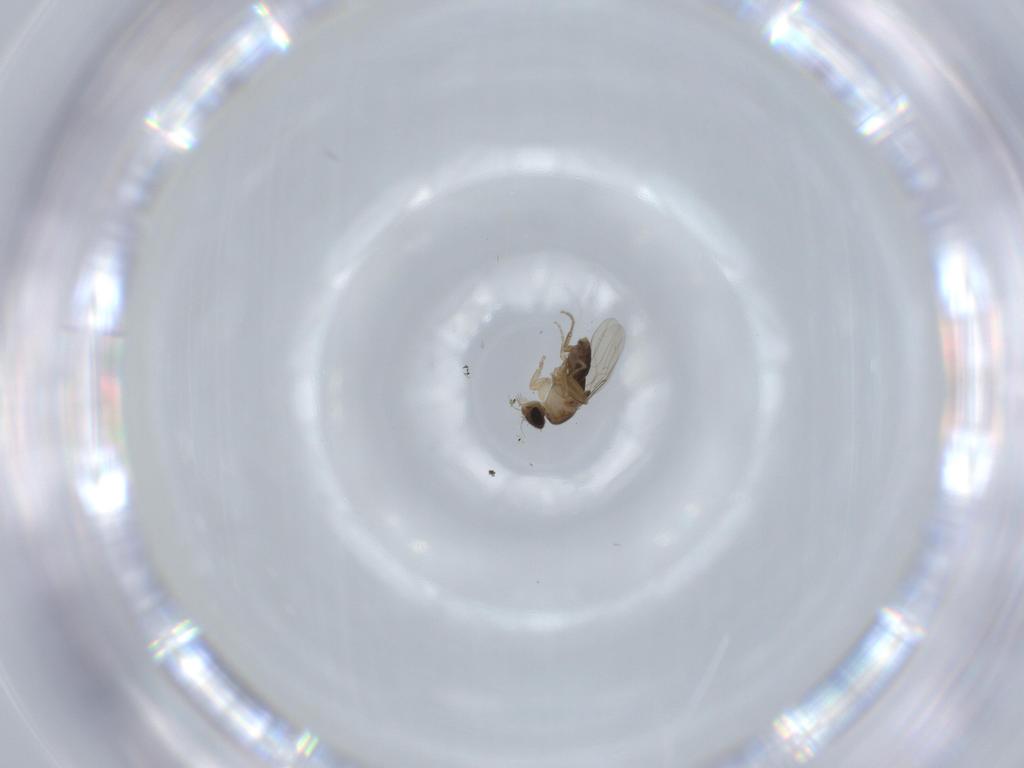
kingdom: Animalia
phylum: Arthropoda
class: Insecta
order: Diptera
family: Phoridae
